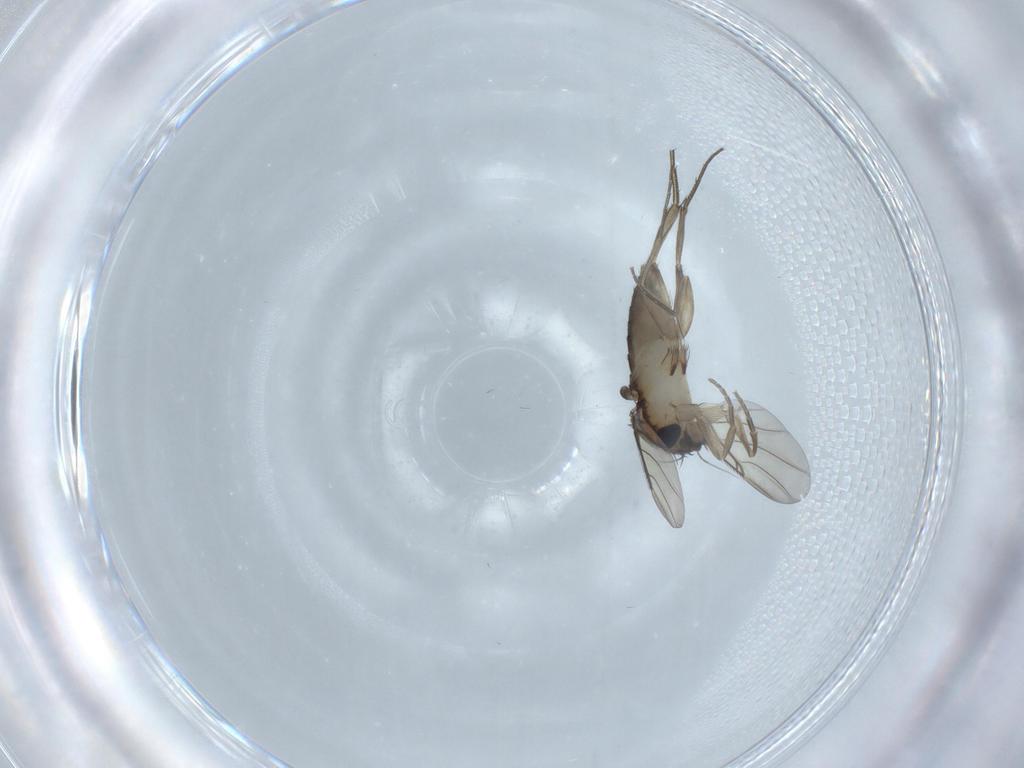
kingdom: Animalia
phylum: Arthropoda
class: Insecta
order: Diptera
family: Phoridae
